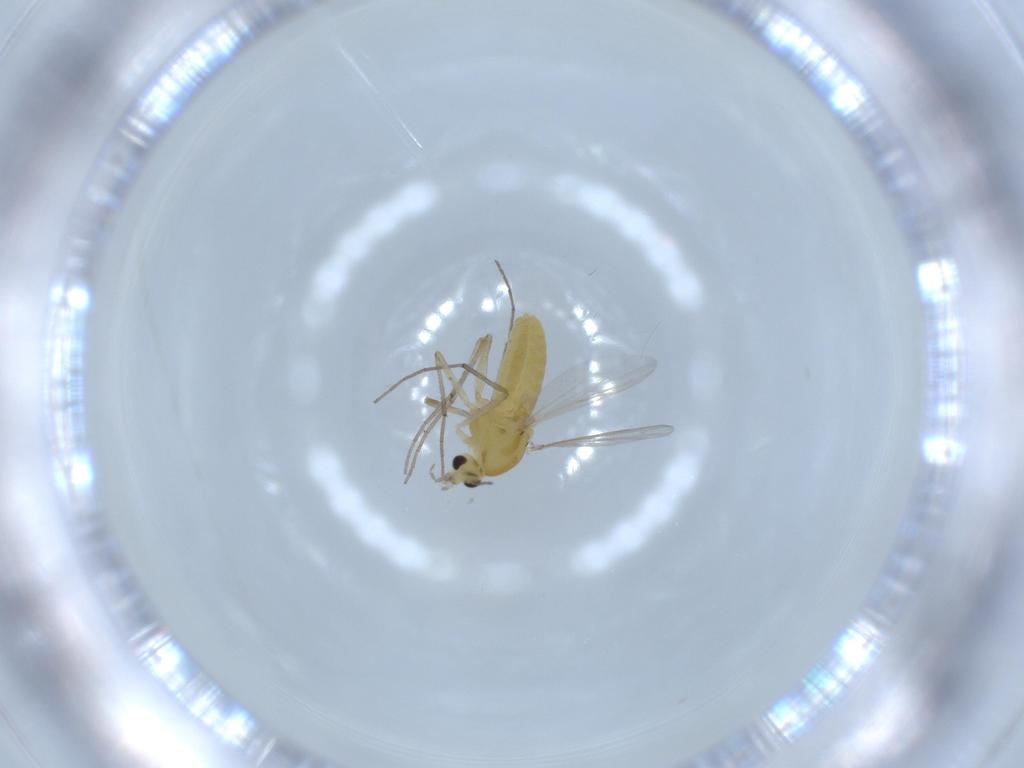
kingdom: Animalia
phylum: Arthropoda
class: Insecta
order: Diptera
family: Chironomidae
